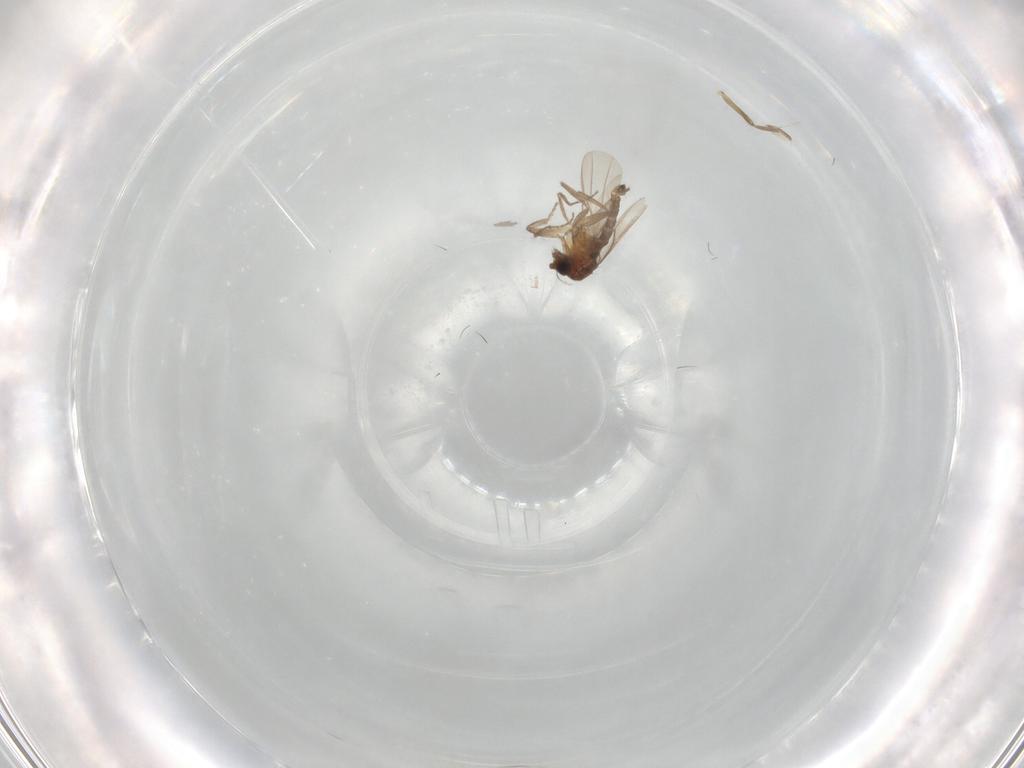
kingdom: Animalia
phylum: Arthropoda
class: Insecta
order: Diptera
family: Phoridae
